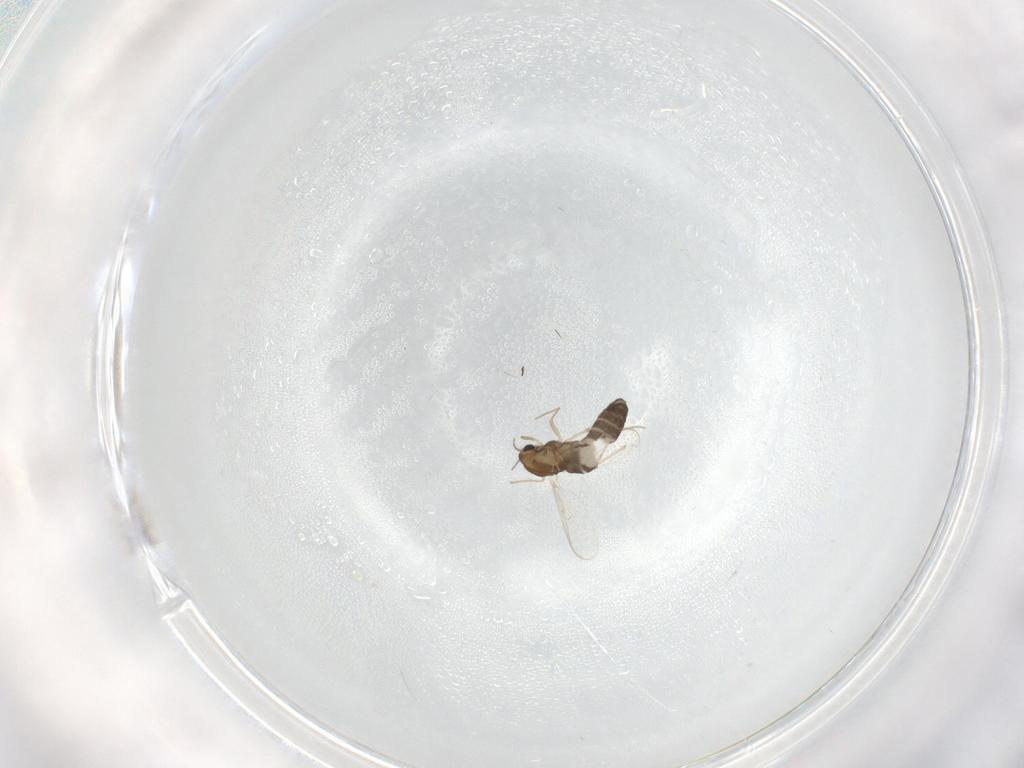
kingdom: Animalia
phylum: Arthropoda
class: Insecta
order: Diptera
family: Chironomidae
